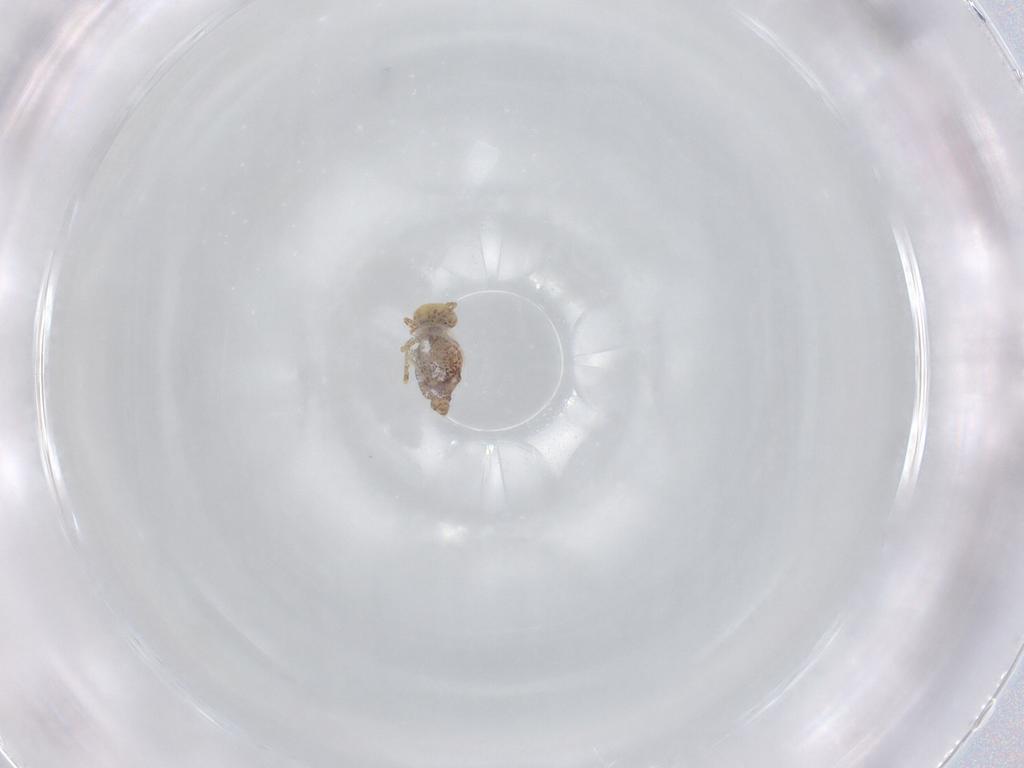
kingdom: Animalia
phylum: Arthropoda
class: Collembola
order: Symphypleona
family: Bourletiellidae
